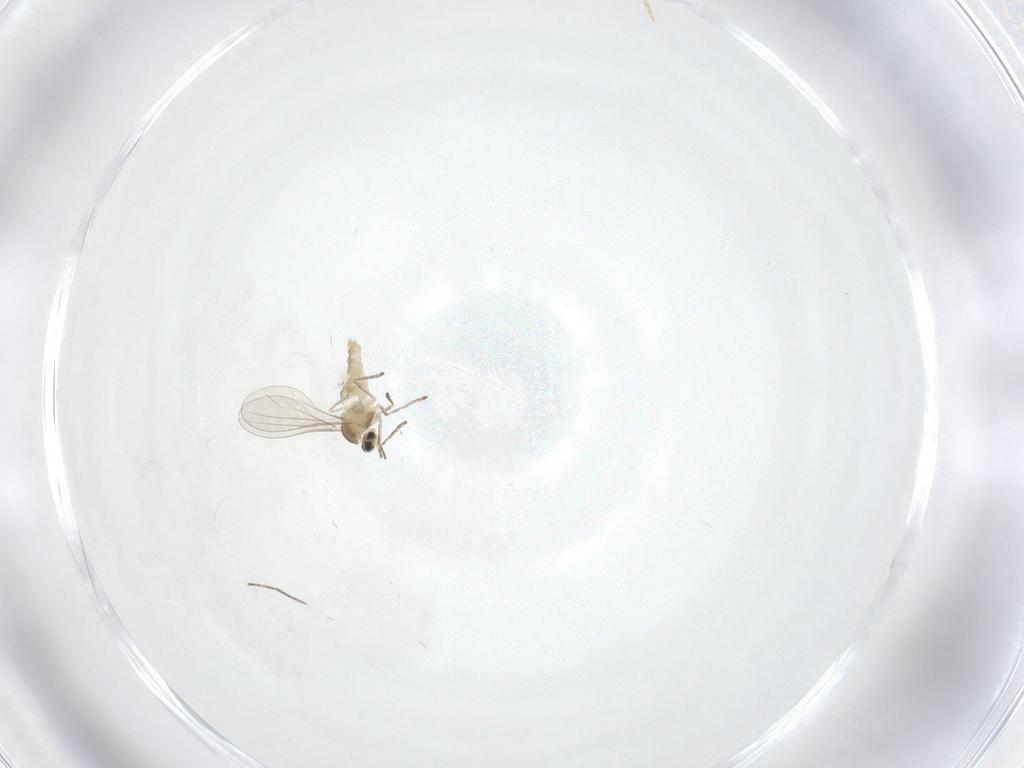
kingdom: Animalia
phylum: Arthropoda
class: Insecta
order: Diptera
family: Cecidomyiidae
